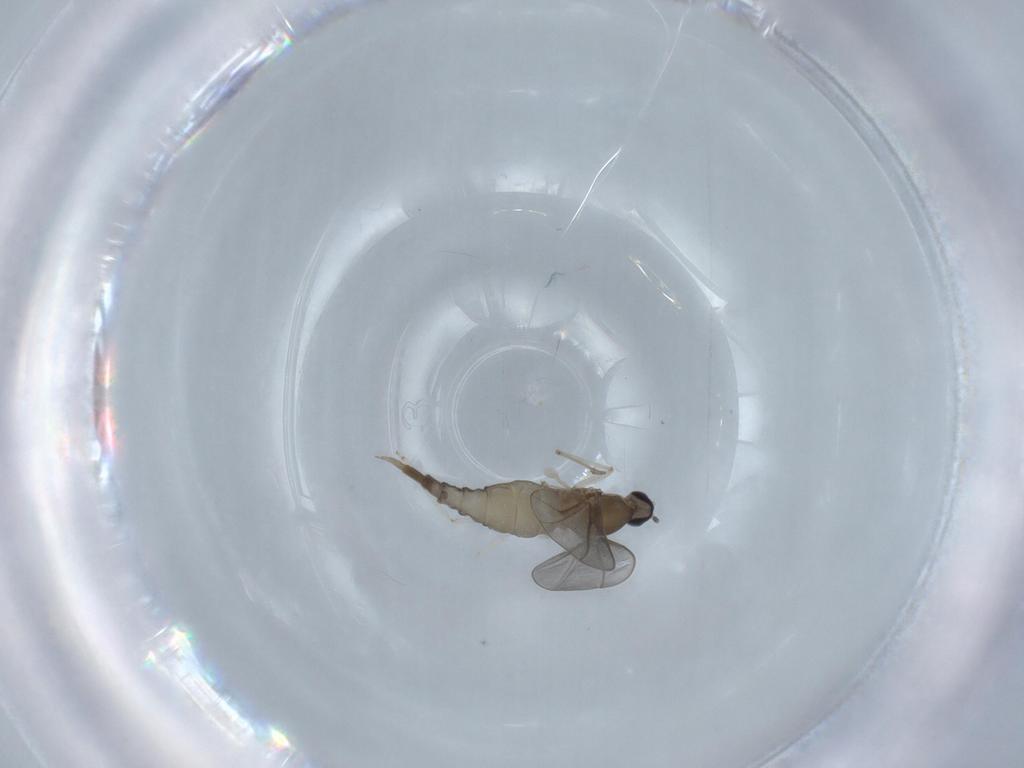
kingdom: Animalia
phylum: Arthropoda
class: Insecta
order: Diptera
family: Cecidomyiidae
